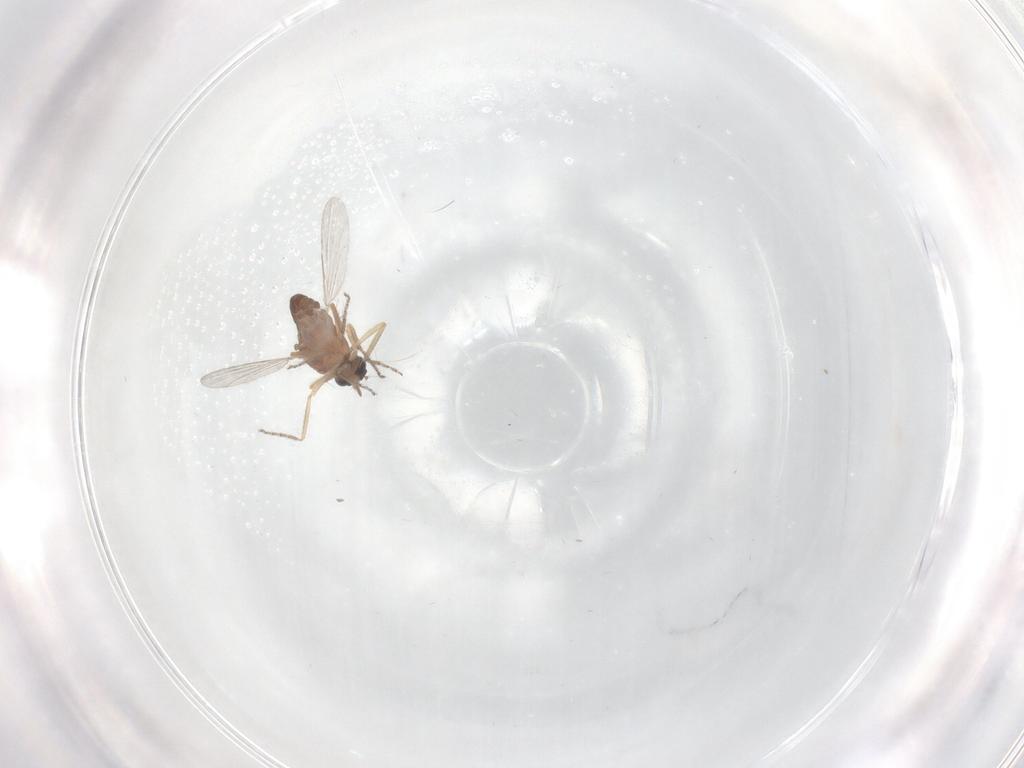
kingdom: Animalia
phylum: Arthropoda
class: Insecta
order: Diptera
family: Ceratopogonidae
